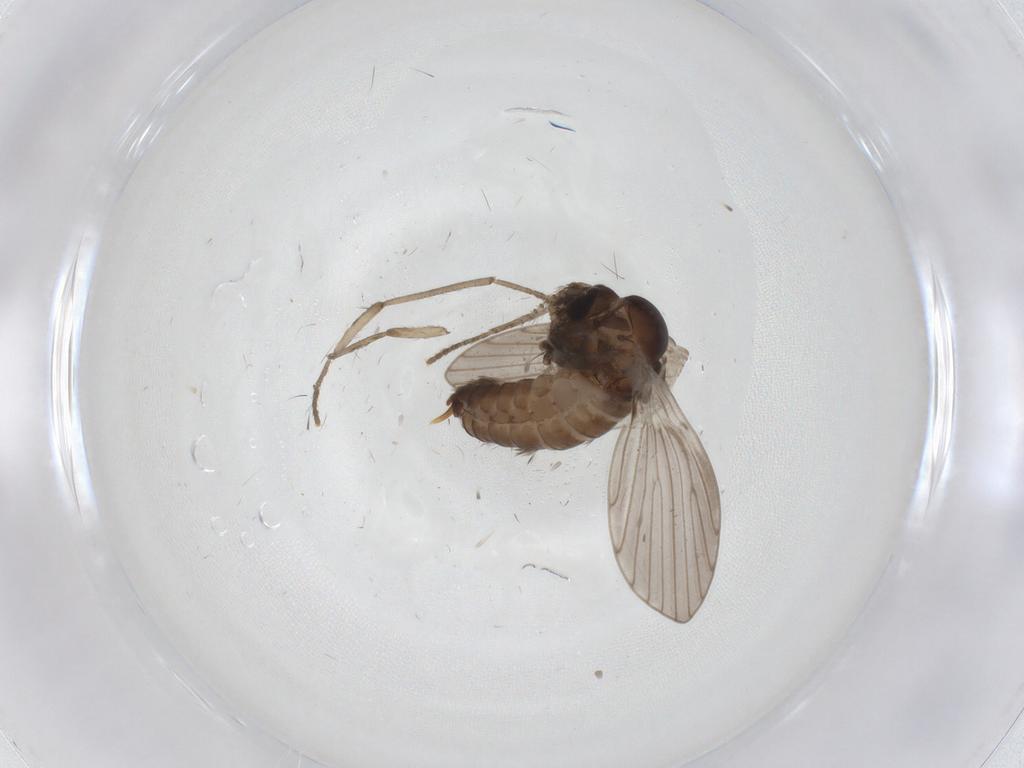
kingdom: Animalia
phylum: Arthropoda
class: Insecta
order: Diptera
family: Psychodidae
